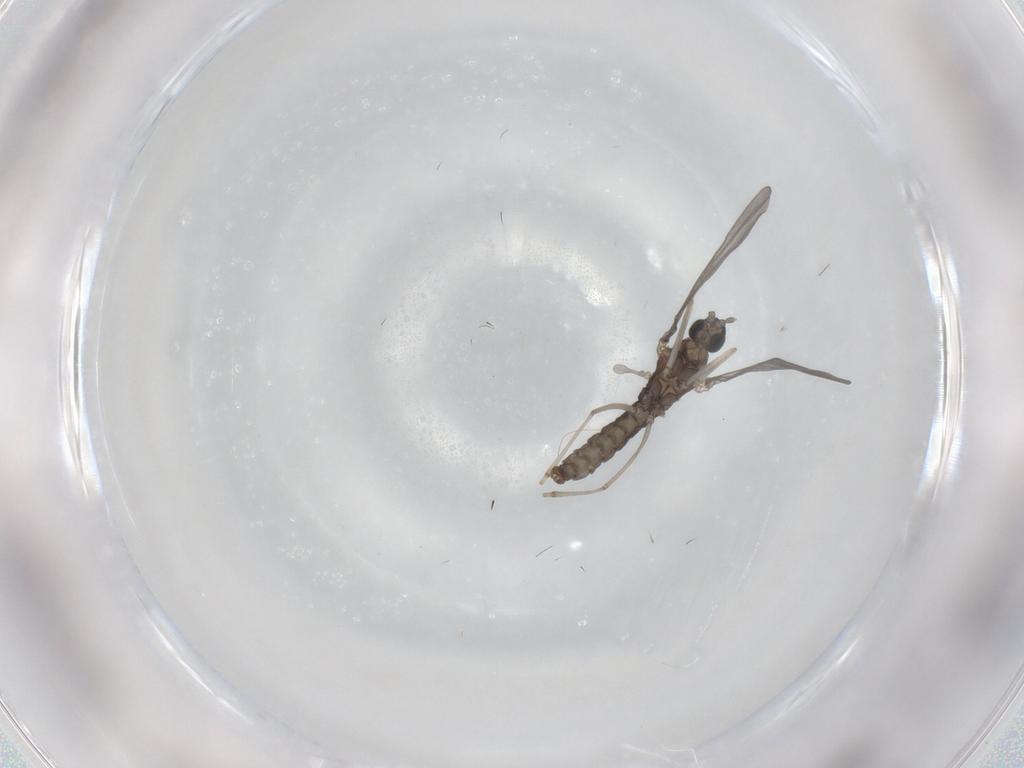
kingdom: Animalia
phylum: Arthropoda
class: Insecta
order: Diptera
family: Cecidomyiidae
